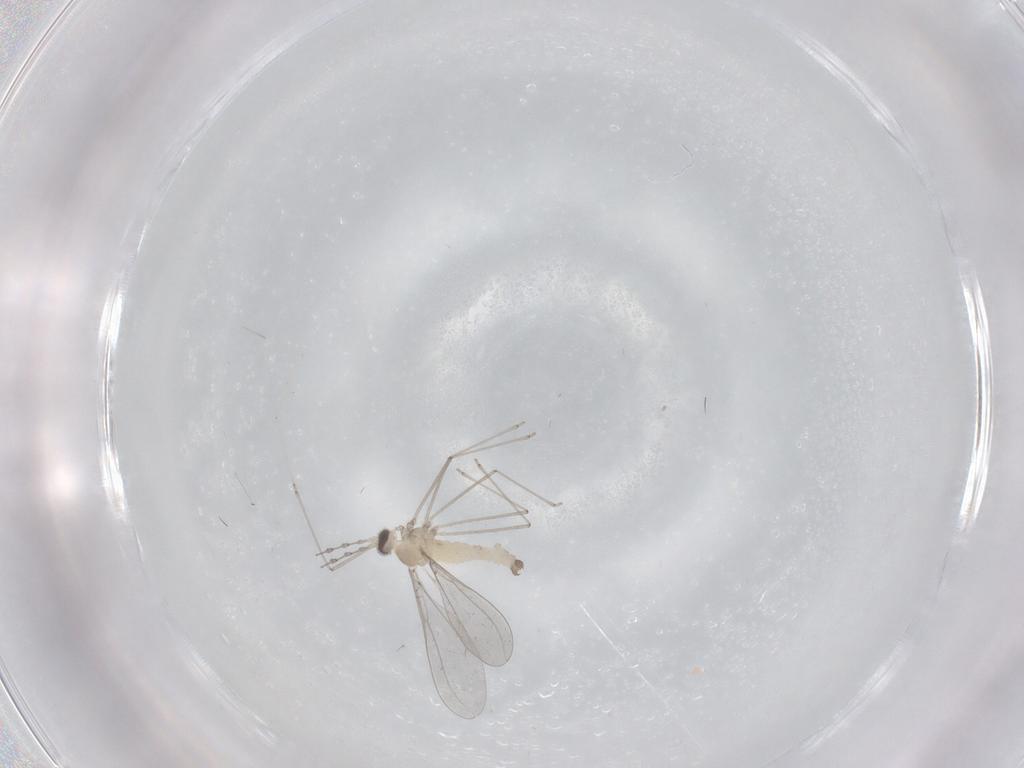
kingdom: Animalia
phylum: Arthropoda
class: Insecta
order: Diptera
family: Cecidomyiidae
